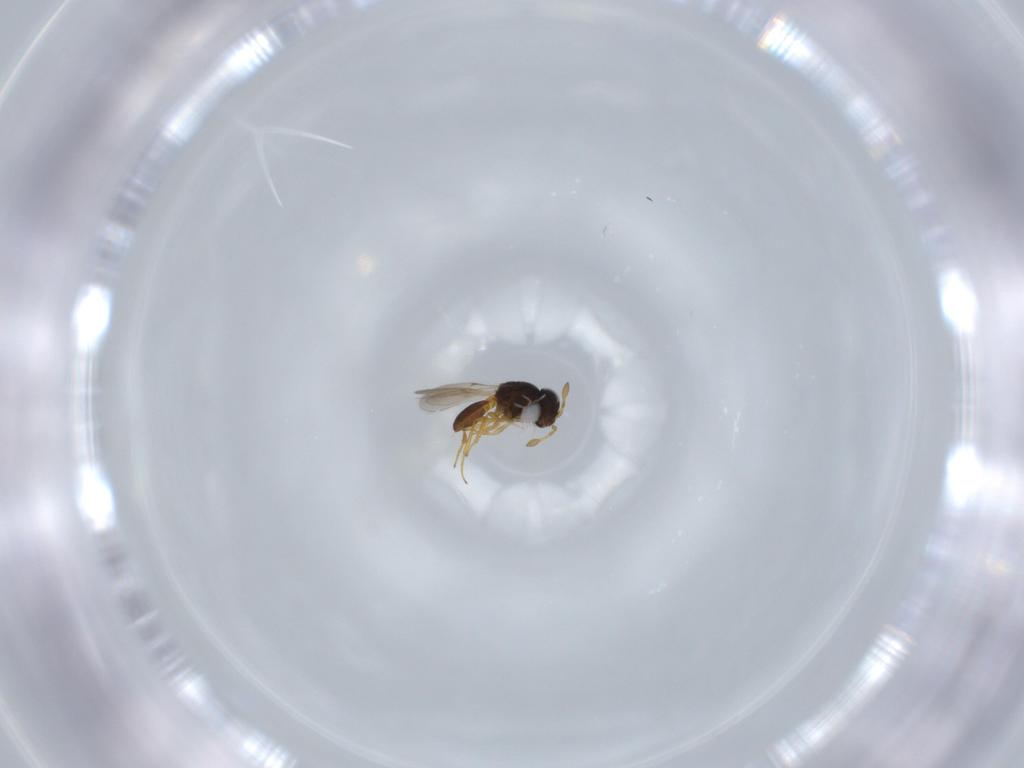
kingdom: Animalia
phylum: Arthropoda
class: Insecta
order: Hymenoptera
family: Scelionidae
